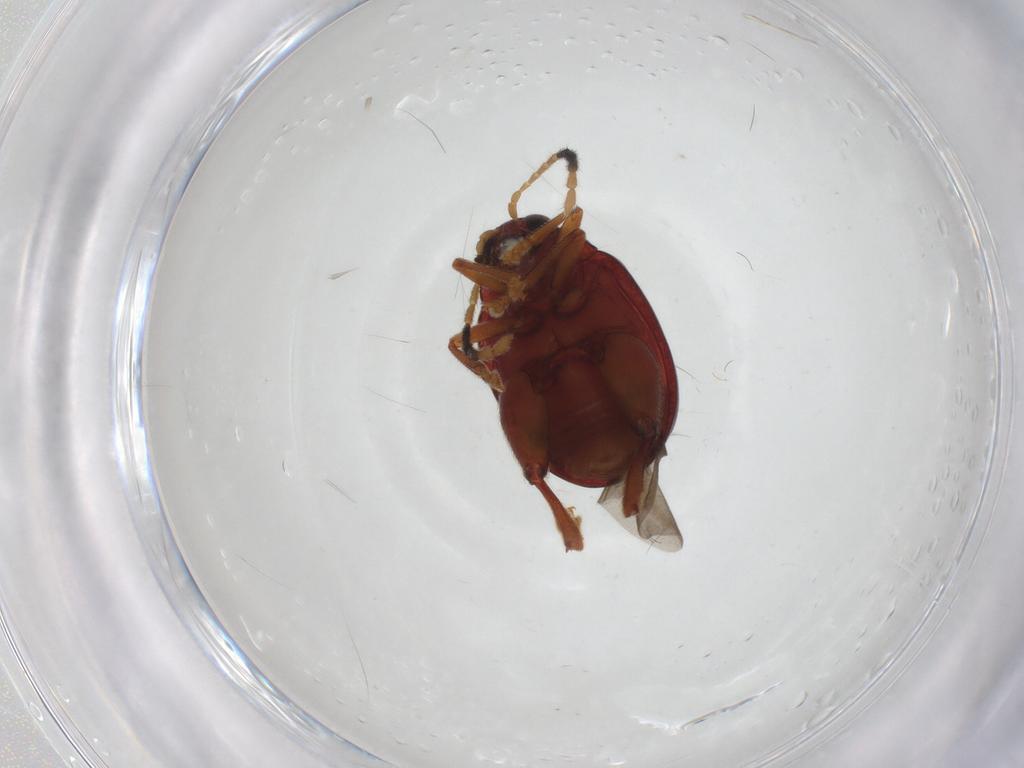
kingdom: Animalia
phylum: Arthropoda
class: Insecta
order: Coleoptera
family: Chrysomelidae
